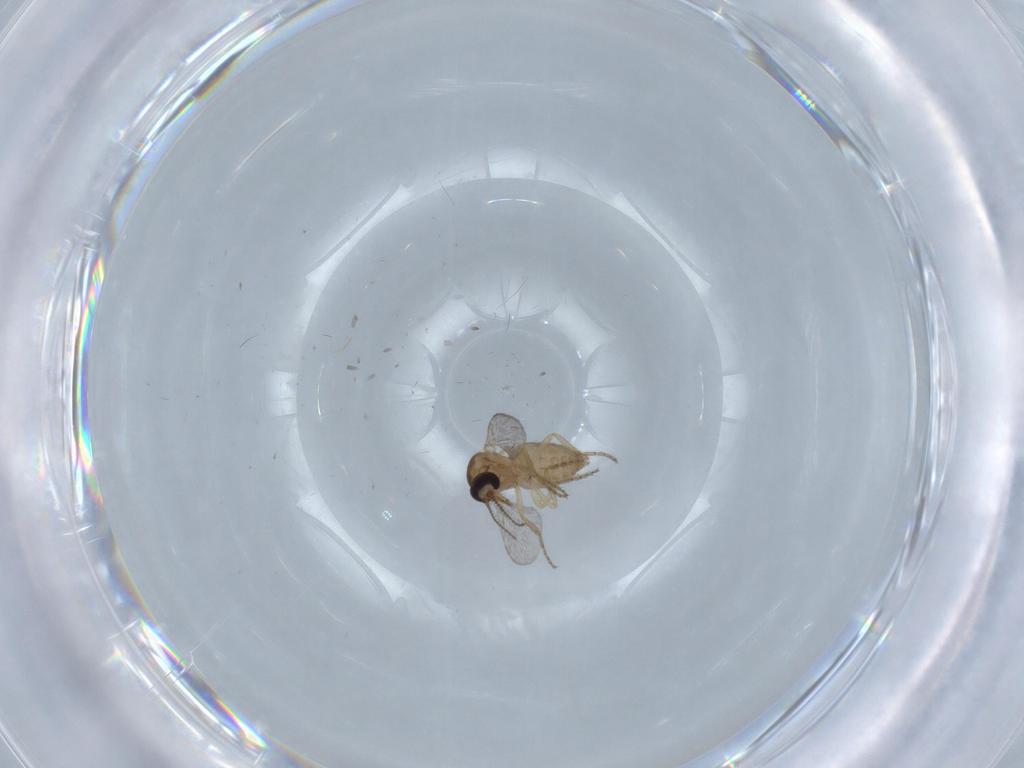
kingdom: Animalia
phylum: Arthropoda
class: Insecta
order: Diptera
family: Ceratopogonidae
